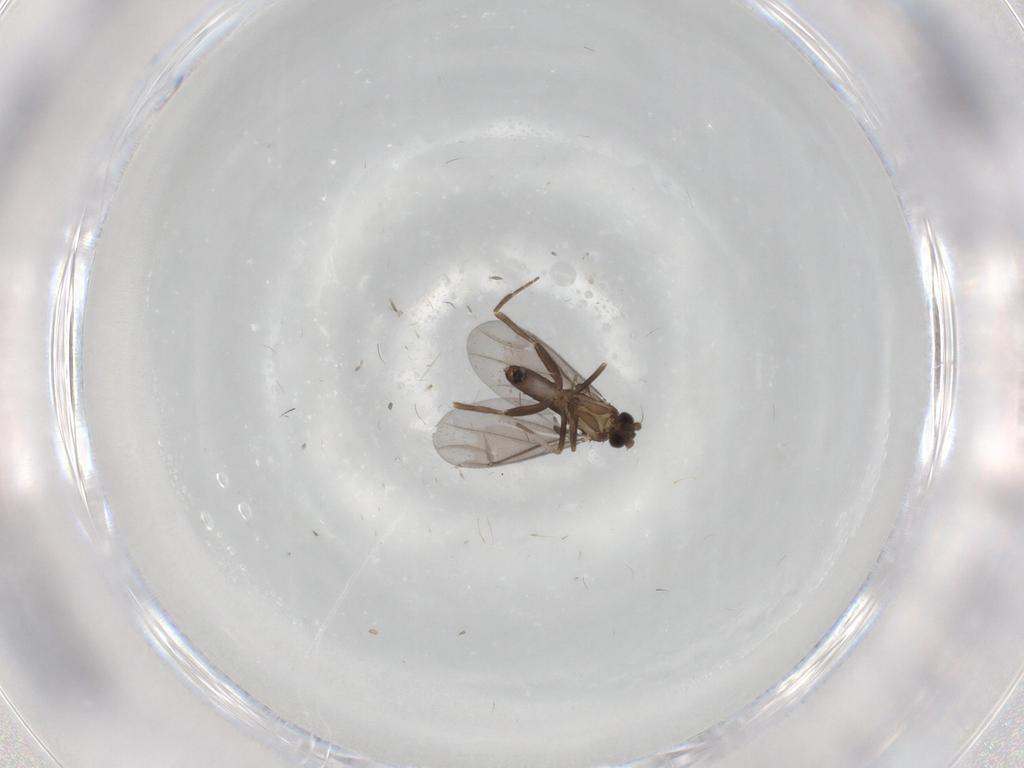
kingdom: Animalia
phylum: Arthropoda
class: Insecta
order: Diptera
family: Phoridae
